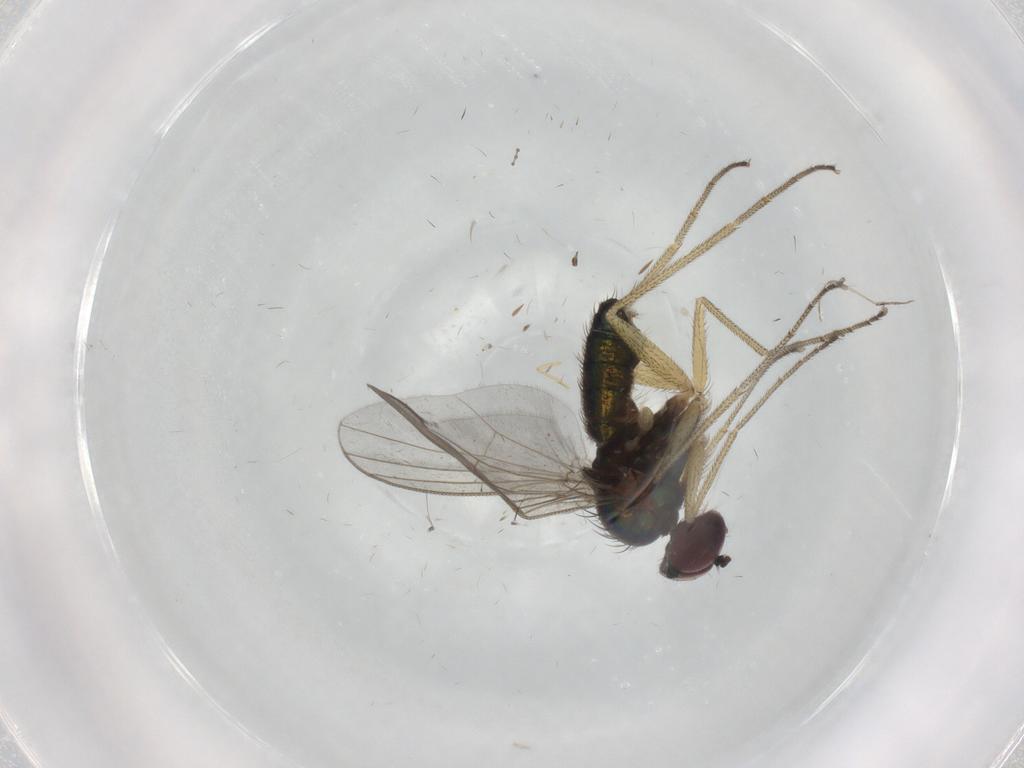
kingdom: Animalia
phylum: Arthropoda
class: Insecta
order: Diptera
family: Dolichopodidae
